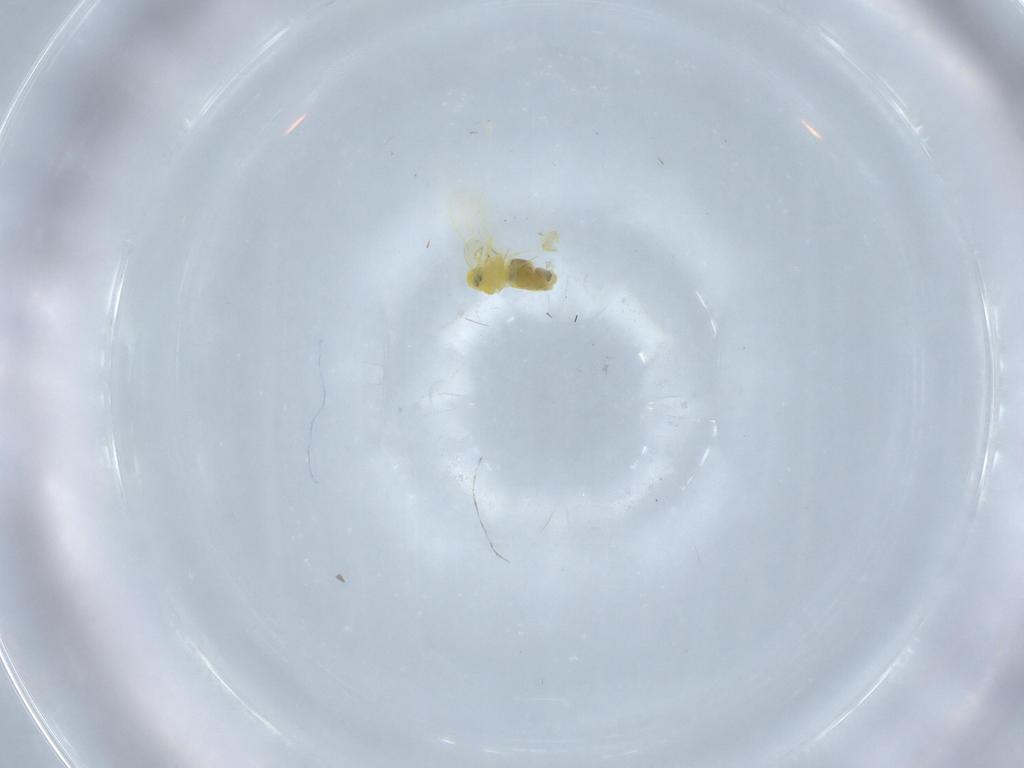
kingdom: Animalia
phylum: Arthropoda
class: Insecta
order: Hemiptera
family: Aleyrodidae
